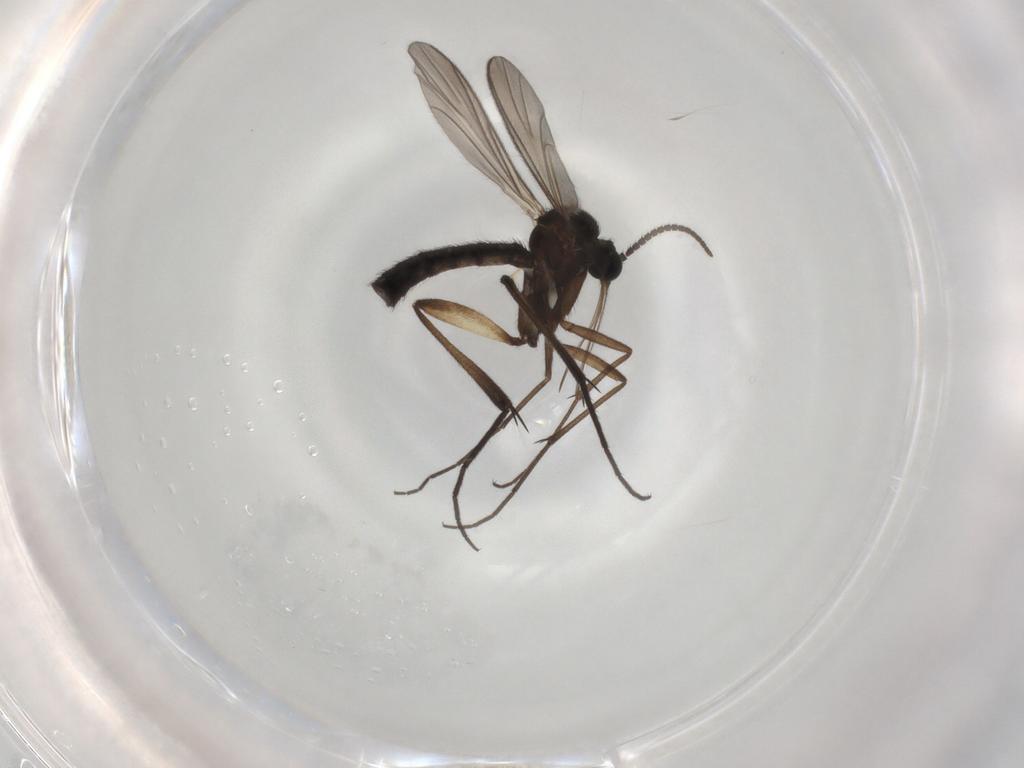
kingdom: Animalia
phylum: Arthropoda
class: Insecta
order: Diptera
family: Keroplatidae
